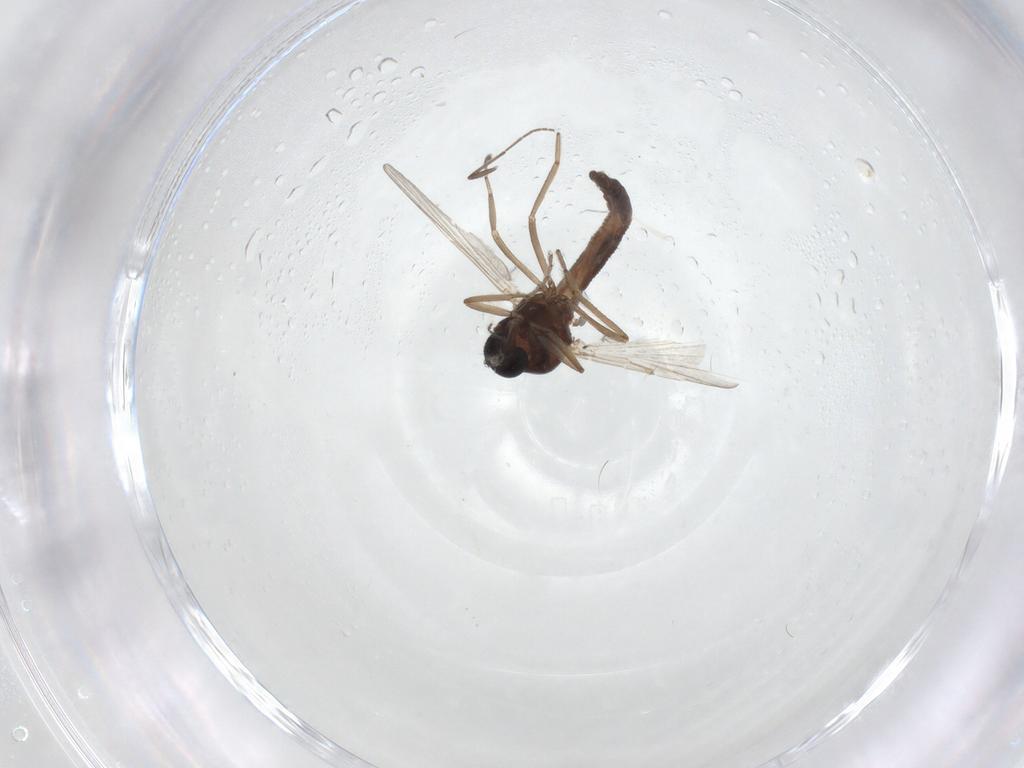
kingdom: Animalia
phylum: Arthropoda
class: Insecta
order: Diptera
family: Ceratopogonidae
